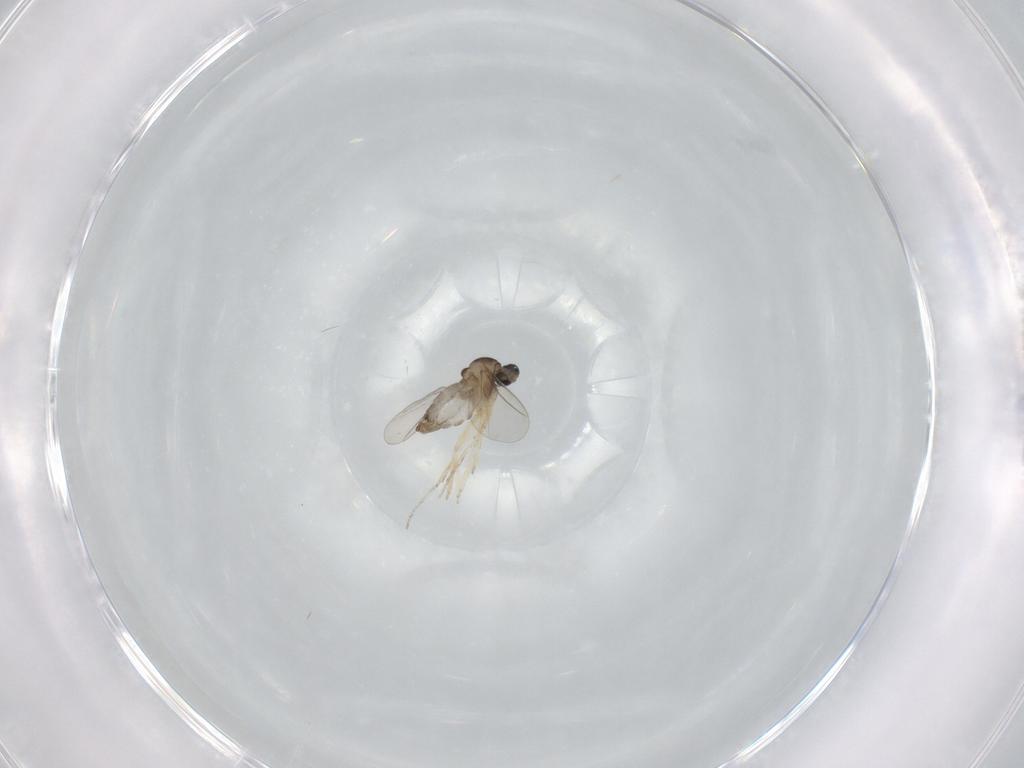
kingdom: Animalia
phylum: Arthropoda
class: Insecta
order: Diptera
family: Cecidomyiidae
